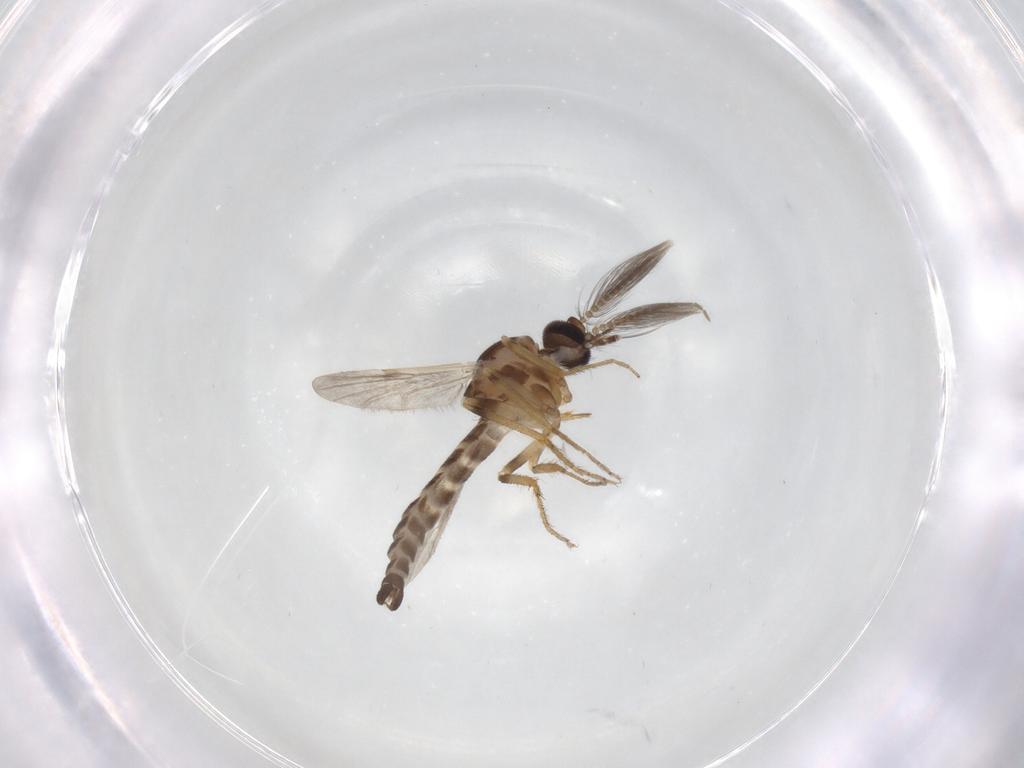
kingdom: Animalia
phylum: Arthropoda
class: Insecta
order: Diptera
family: Ceratopogonidae
